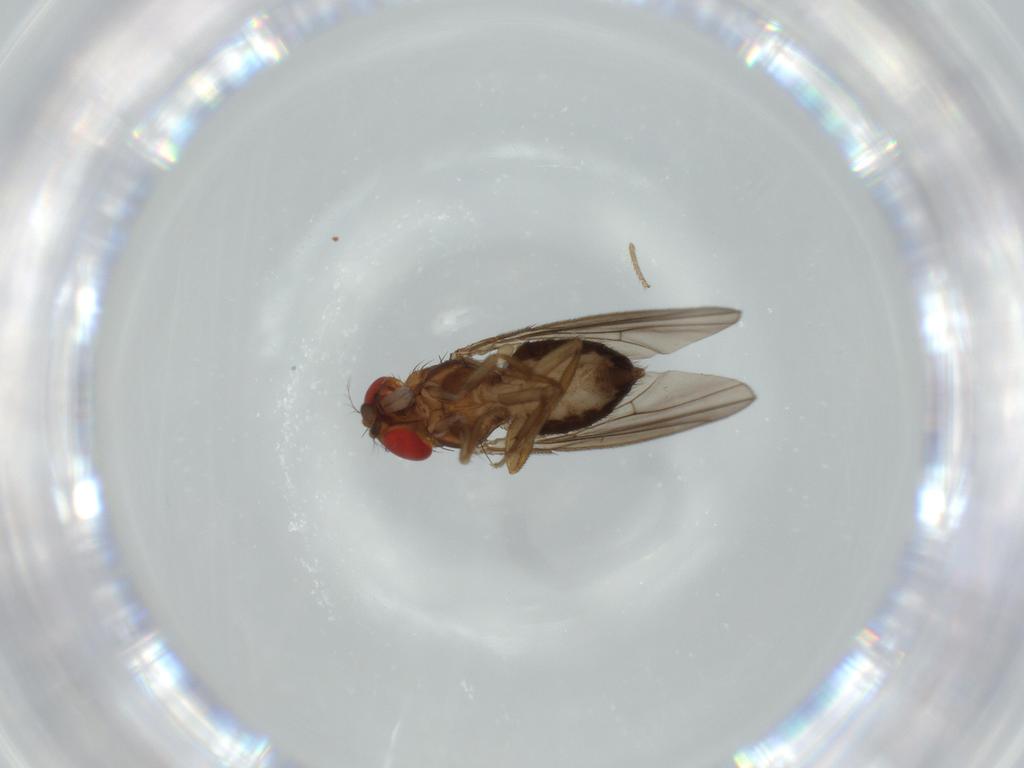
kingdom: Animalia
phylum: Arthropoda
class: Insecta
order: Diptera
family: Drosophilidae
